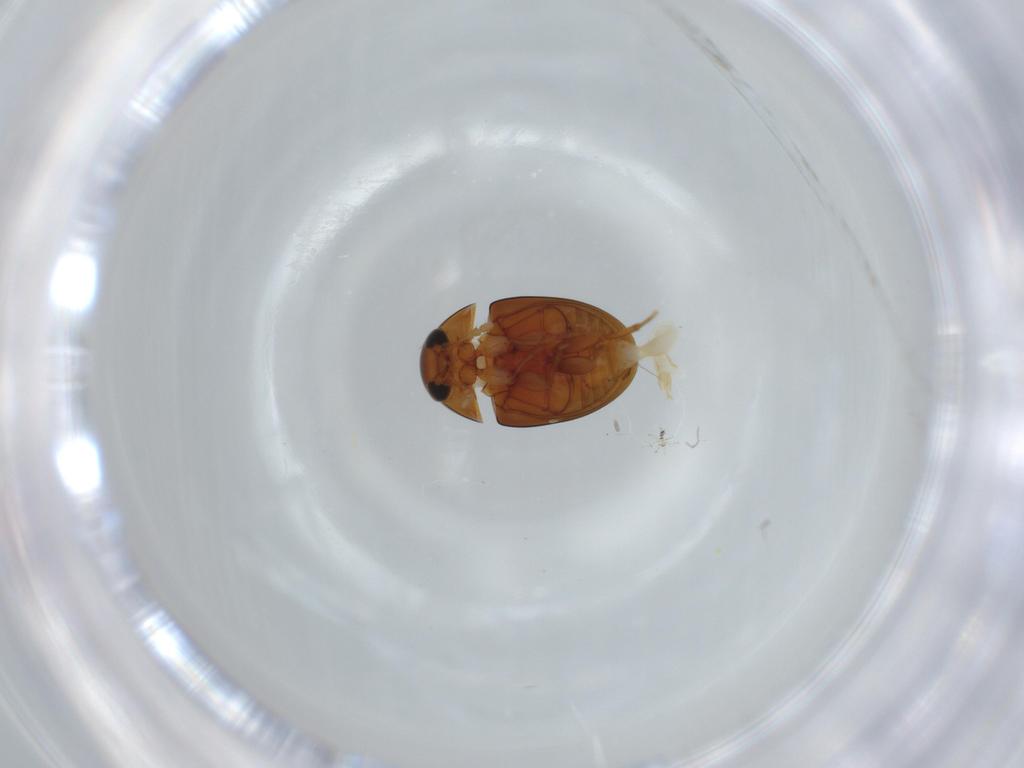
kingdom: Animalia
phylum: Arthropoda
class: Insecta
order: Coleoptera
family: Phalacridae
